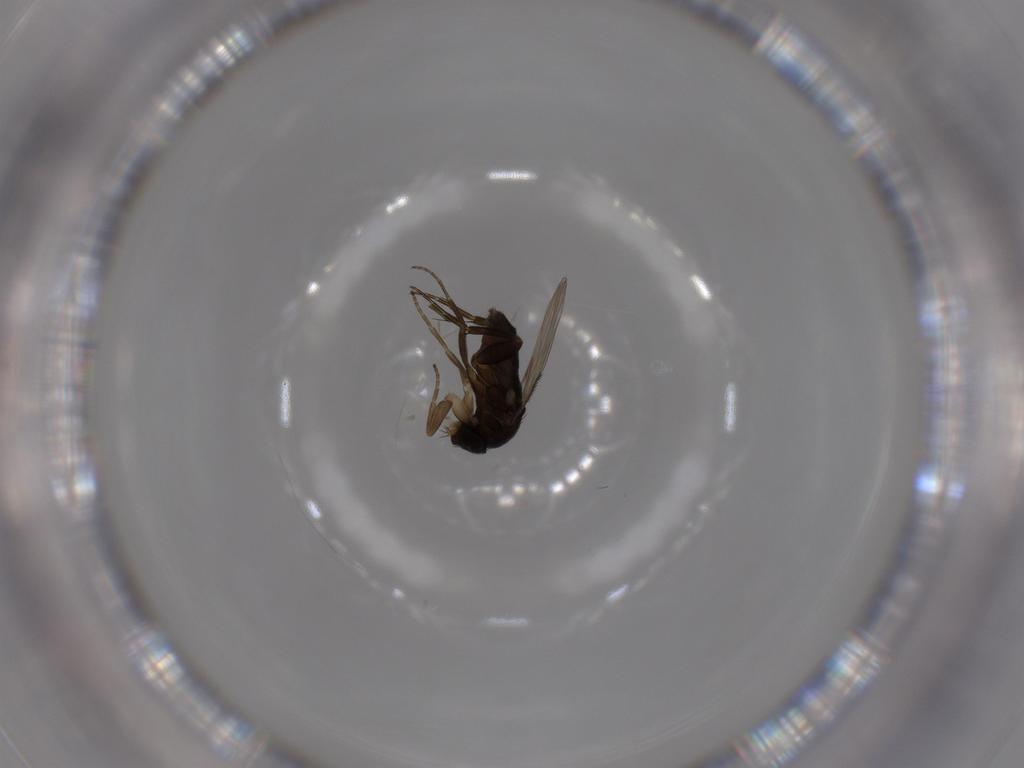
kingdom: Animalia
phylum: Arthropoda
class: Insecta
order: Diptera
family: Phoridae
